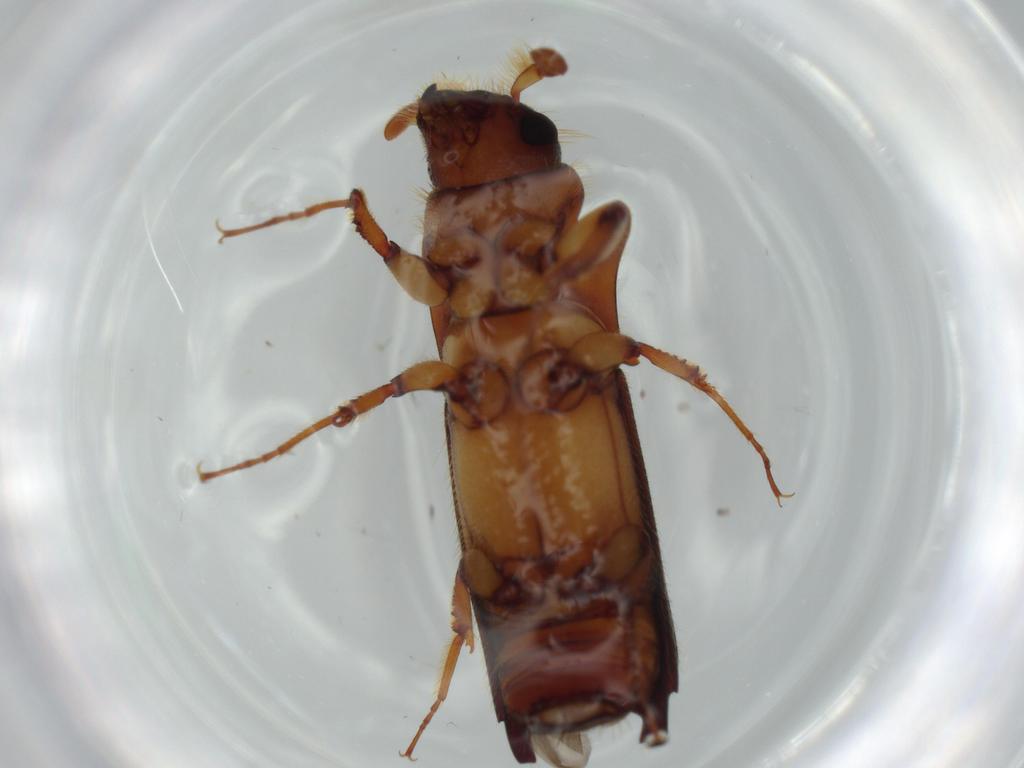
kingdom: Animalia
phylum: Arthropoda
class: Insecta
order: Coleoptera
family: Curculionidae
